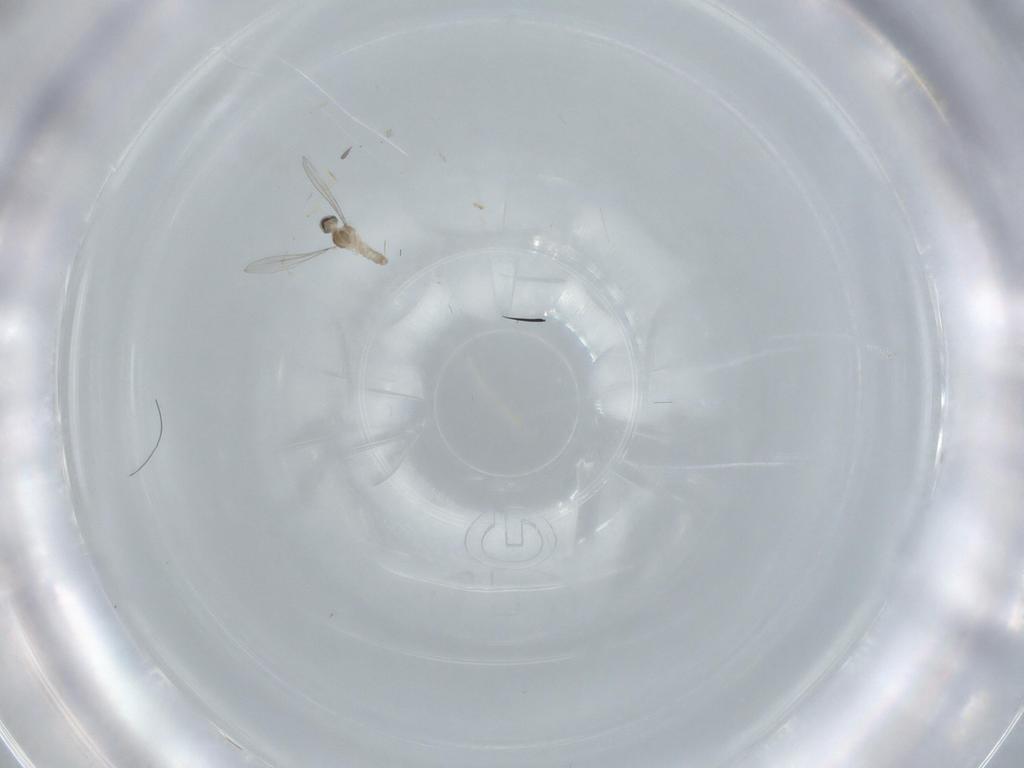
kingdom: Animalia
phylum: Arthropoda
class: Insecta
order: Diptera
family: Cecidomyiidae
